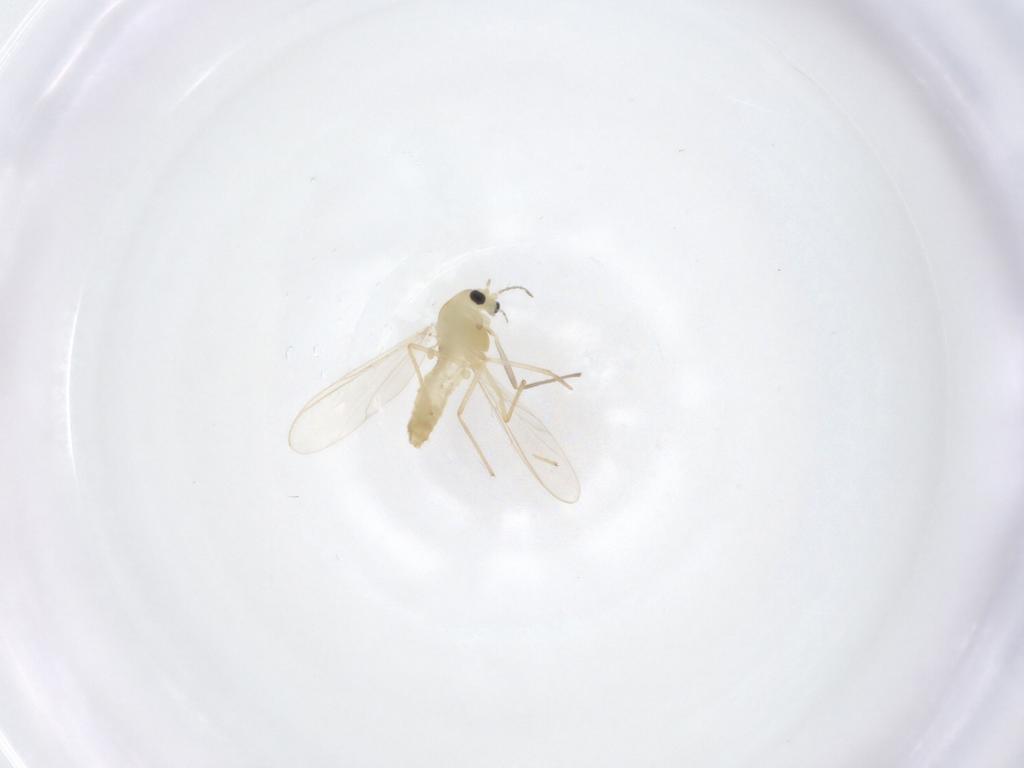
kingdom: Animalia
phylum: Arthropoda
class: Insecta
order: Diptera
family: Chironomidae
